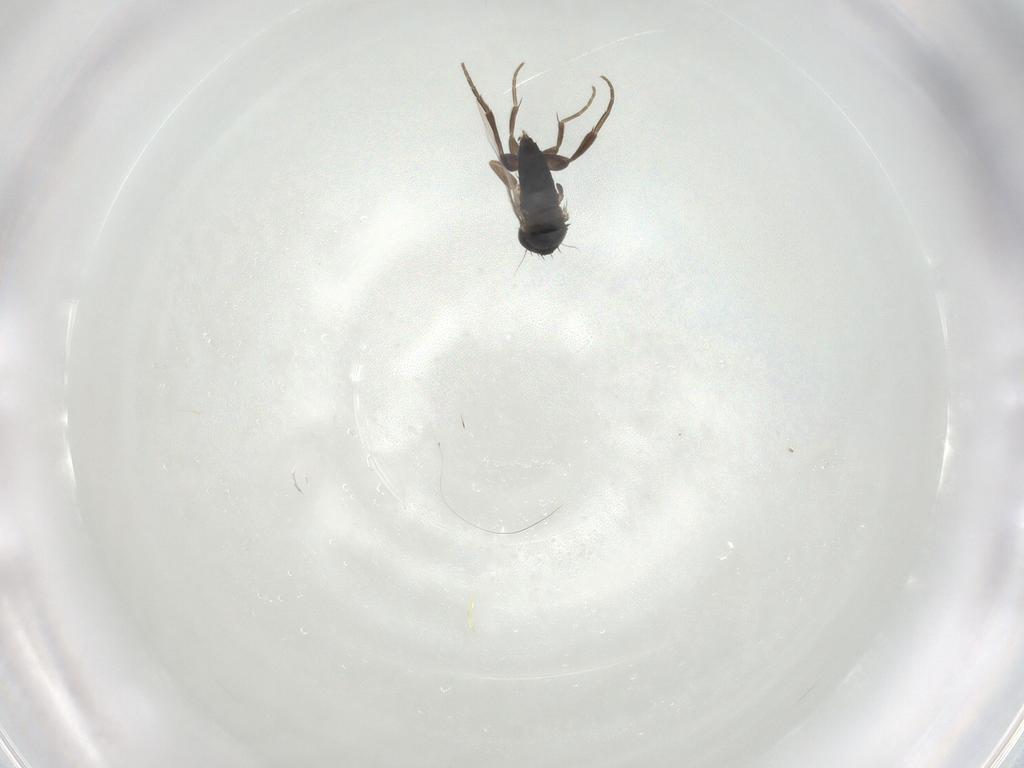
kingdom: Animalia
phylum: Arthropoda
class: Insecta
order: Diptera
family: Phoridae
